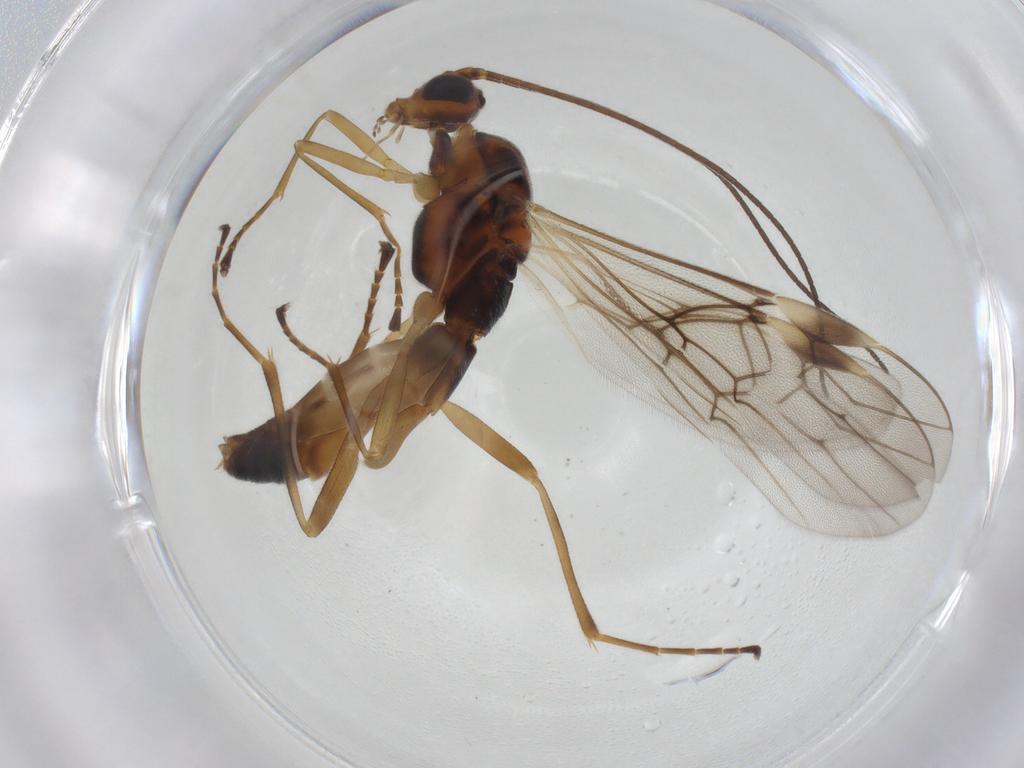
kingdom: Animalia
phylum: Arthropoda
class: Insecta
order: Hymenoptera
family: Braconidae
